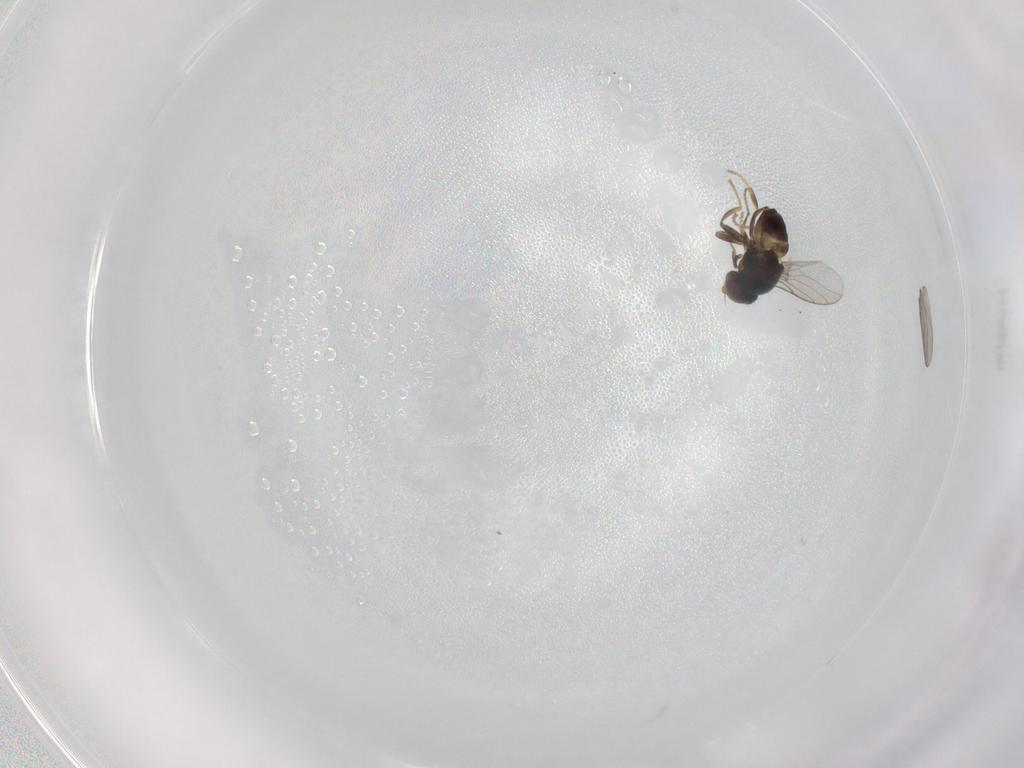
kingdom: Animalia
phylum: Arthropoda
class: Insecta
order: Diptera
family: Chloropidae
